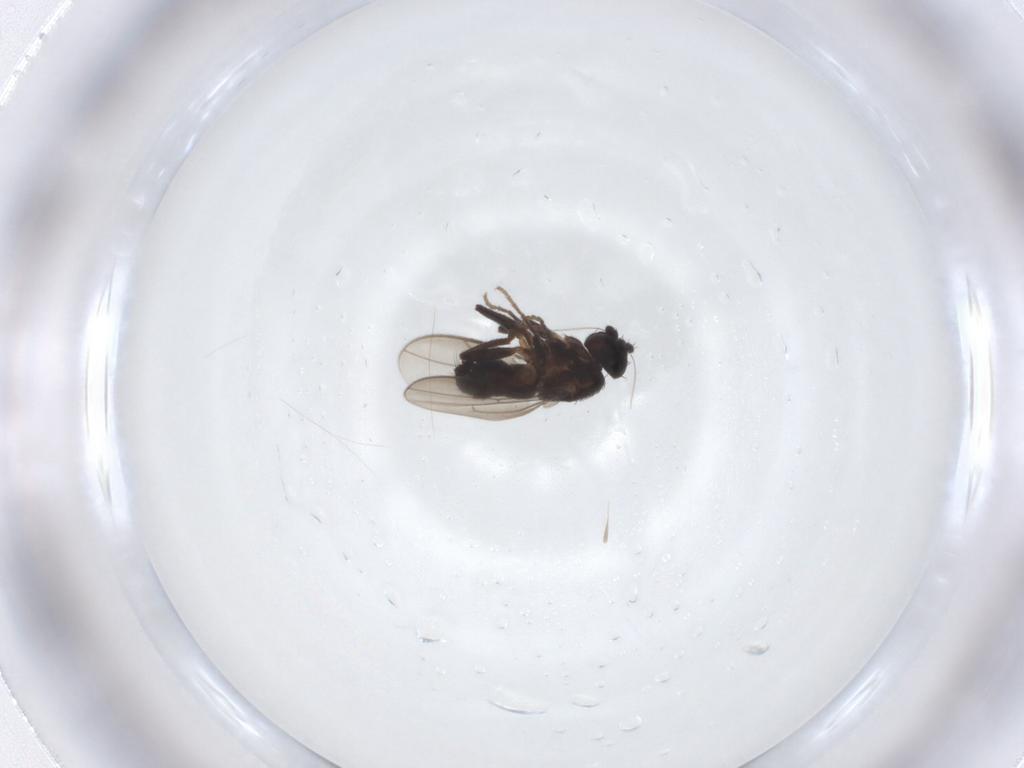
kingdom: Animalia
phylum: Arthropoda
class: Insecta
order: Diptera
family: Sphaeroceridae
